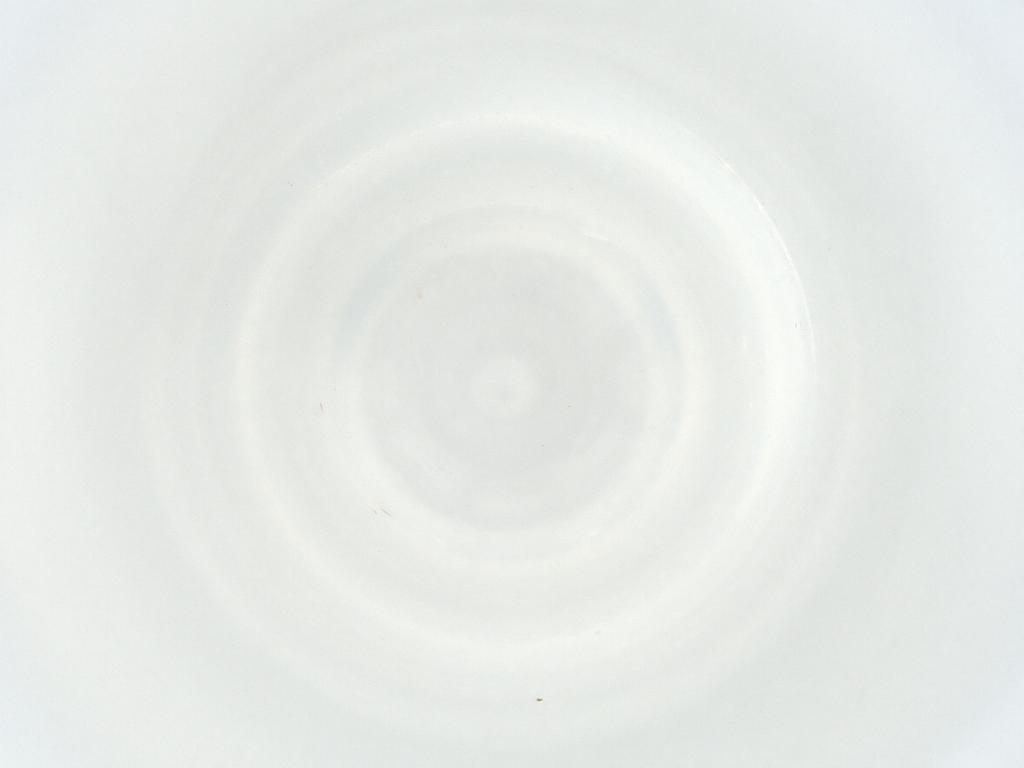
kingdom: Animalia
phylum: Arthropoda
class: Arachnida
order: Mesostigmata
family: Phytoseiidae
